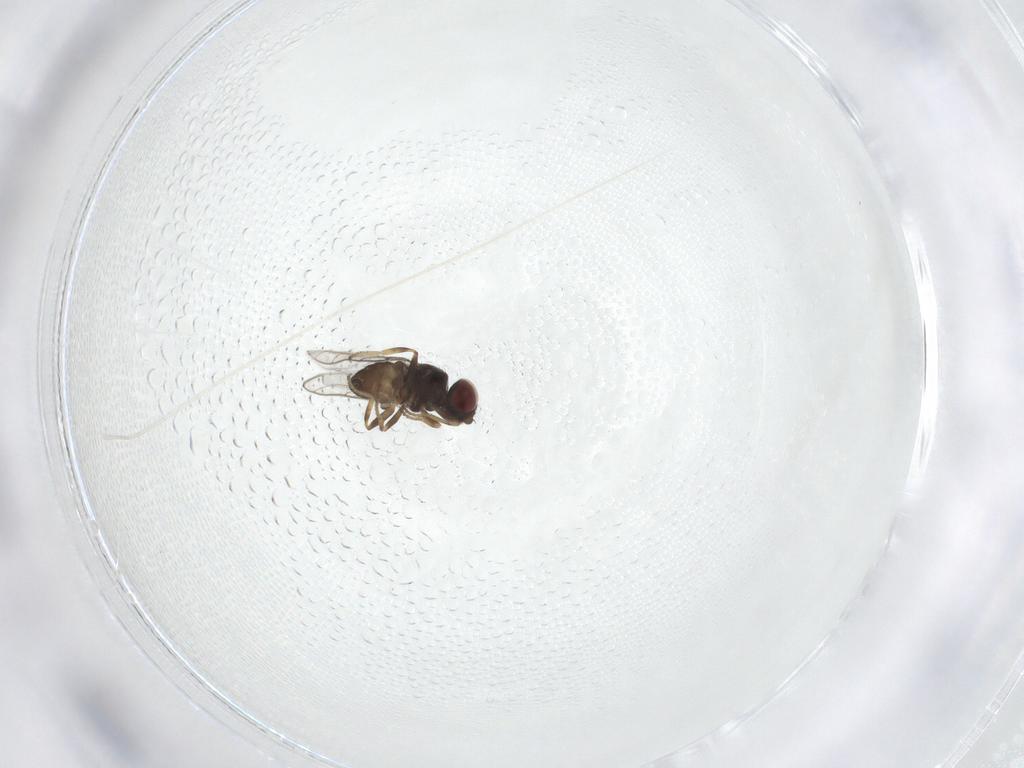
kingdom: Animalia
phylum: Arthropoda
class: Insecta
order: Diptera
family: Chloropidae
